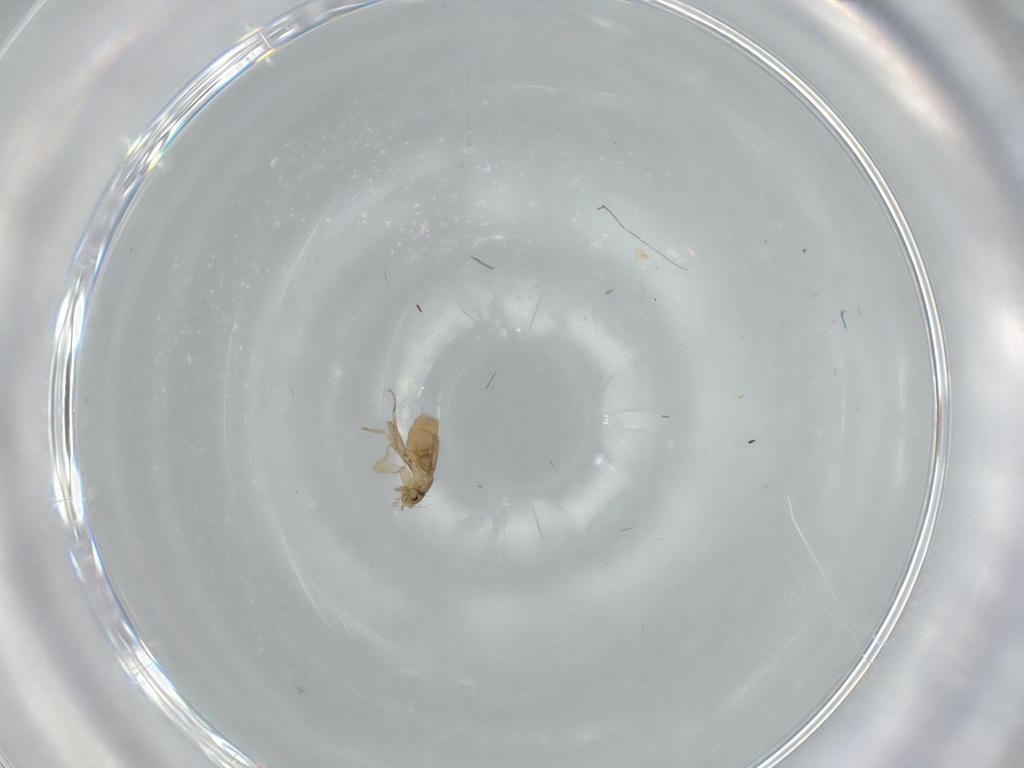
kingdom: Animalia
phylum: Arthropoda
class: Insecta
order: Diptera
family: Phoridae
